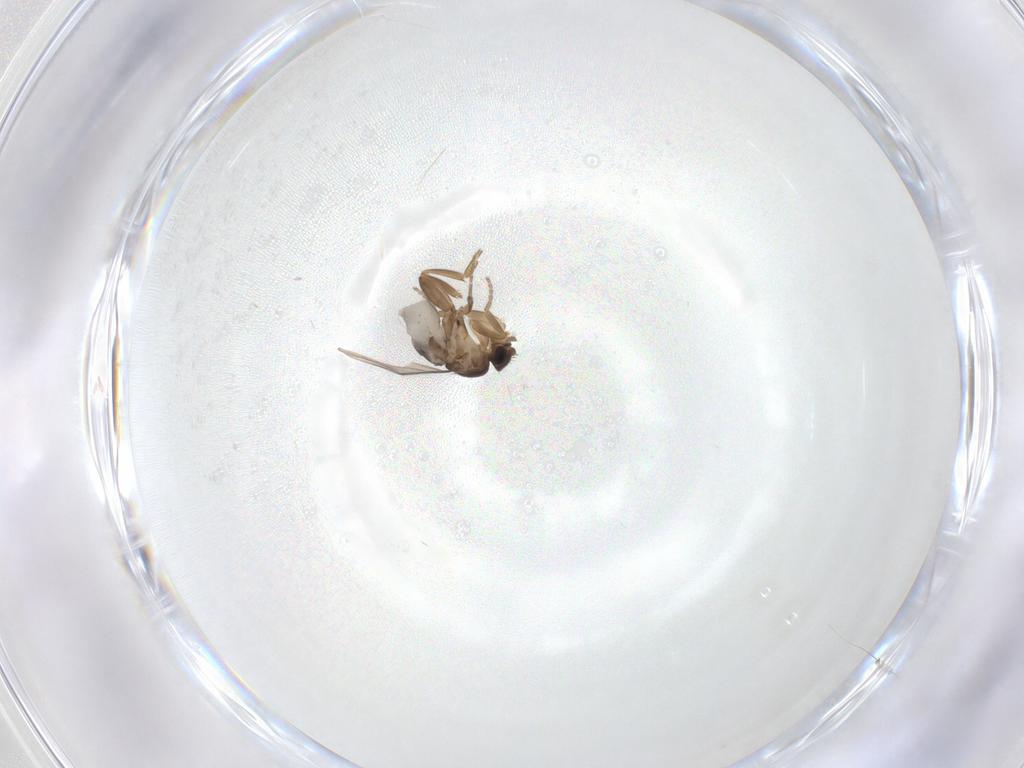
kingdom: Animalia
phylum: Arthropoda
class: Insecta
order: Diptera
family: Phoridae
